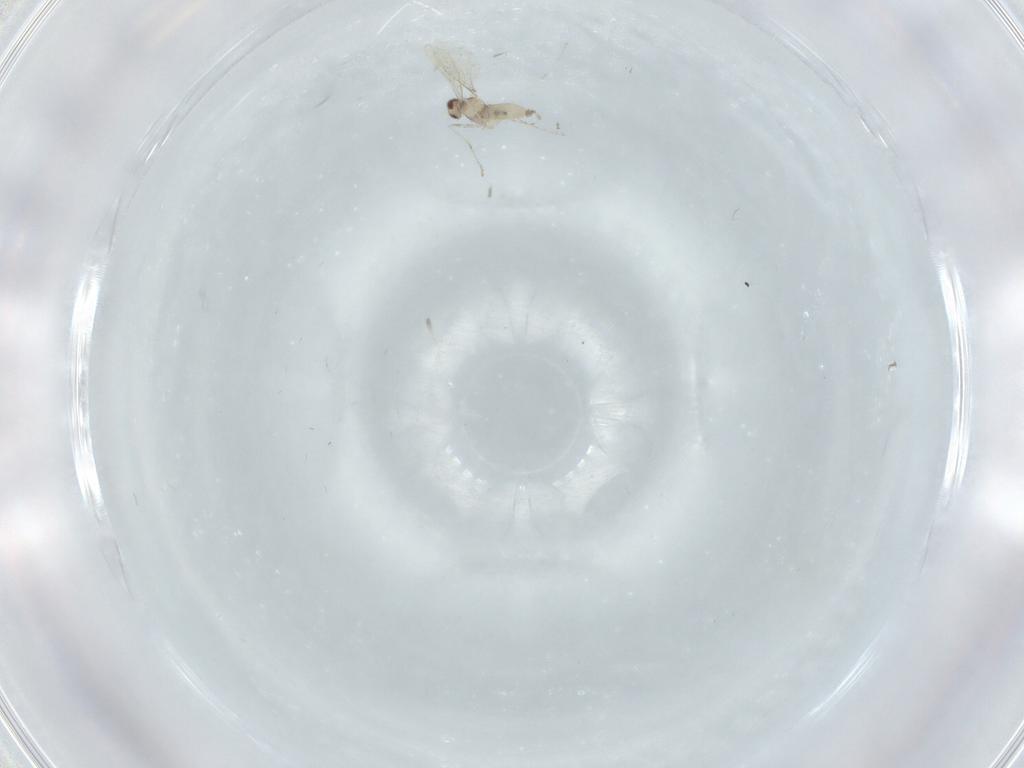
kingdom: Animalia
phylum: Arthropoda
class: Insecta
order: Diptera
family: Cecidomyiidae
